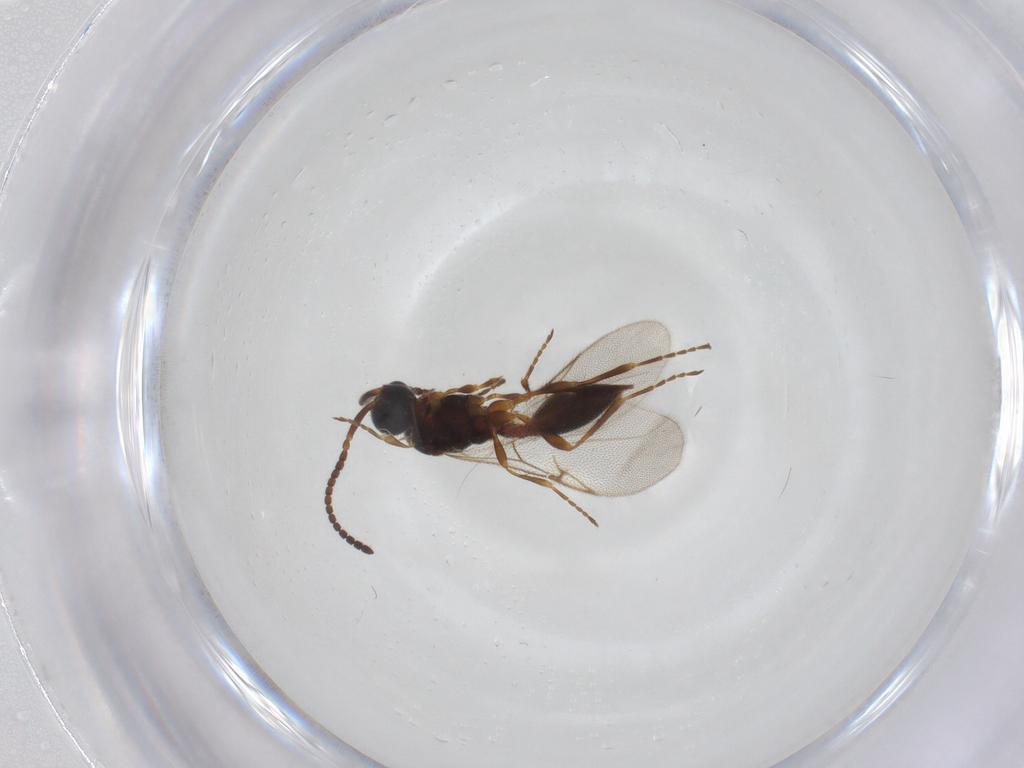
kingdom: Animalia
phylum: Arthropoda
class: Insecta
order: Hymenoptera
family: Diapriidae
